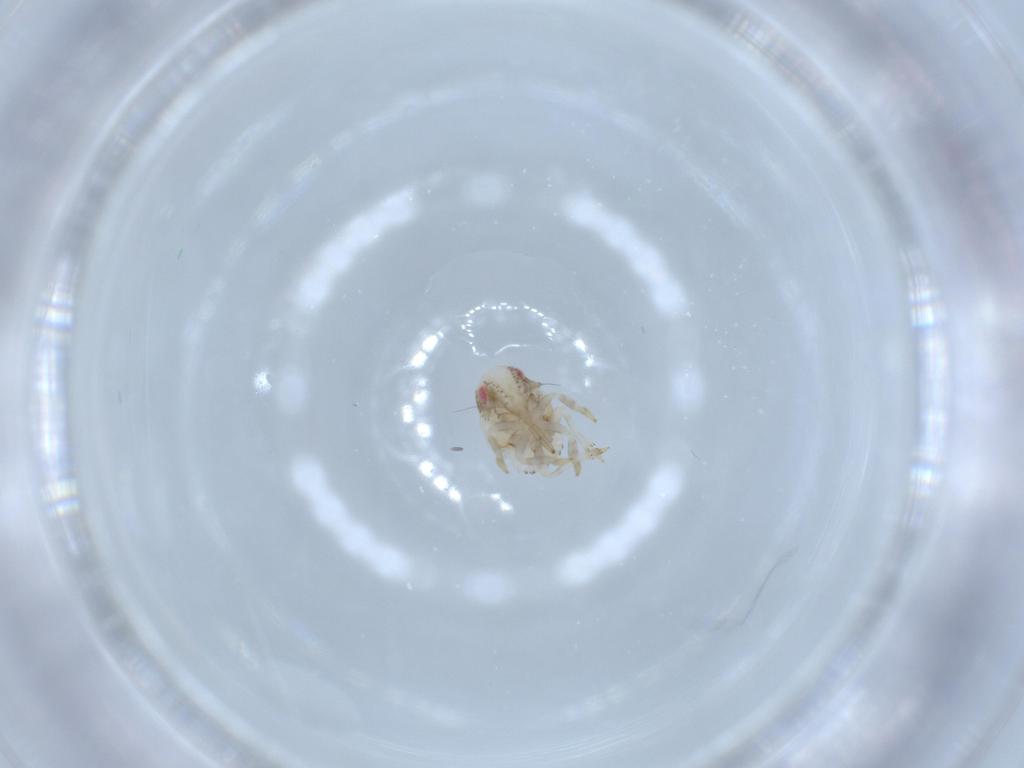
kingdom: Animalia
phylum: Arthropoda
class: Insecta
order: Hemiptera
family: Acanaloniidae
